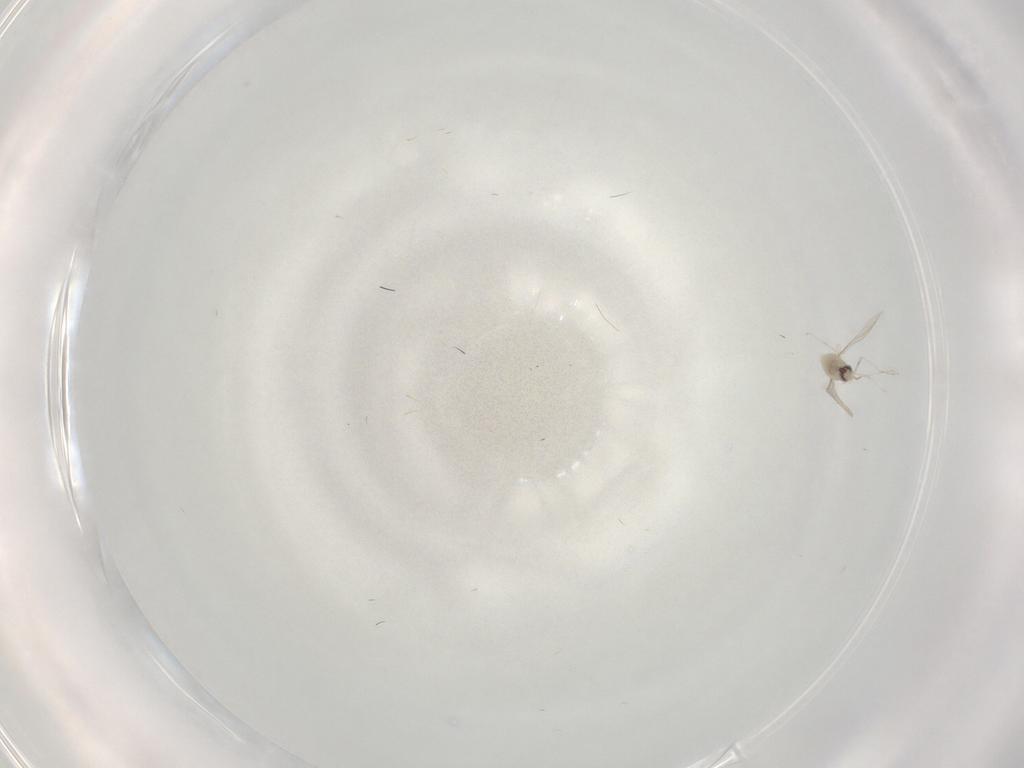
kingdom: Animalia
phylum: Arthropoda
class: Insecta
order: Diptera
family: Cecidomyiidae
